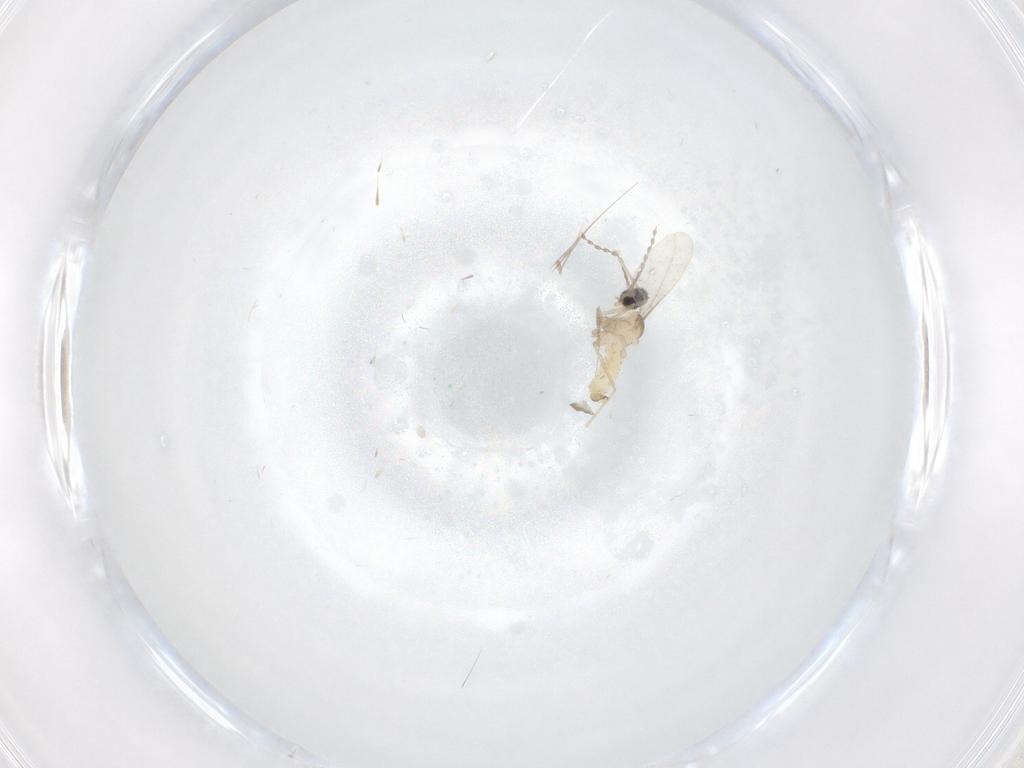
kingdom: Animalia
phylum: Arthropoda
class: Insecta
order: Diptera
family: Cecidomyiidae
